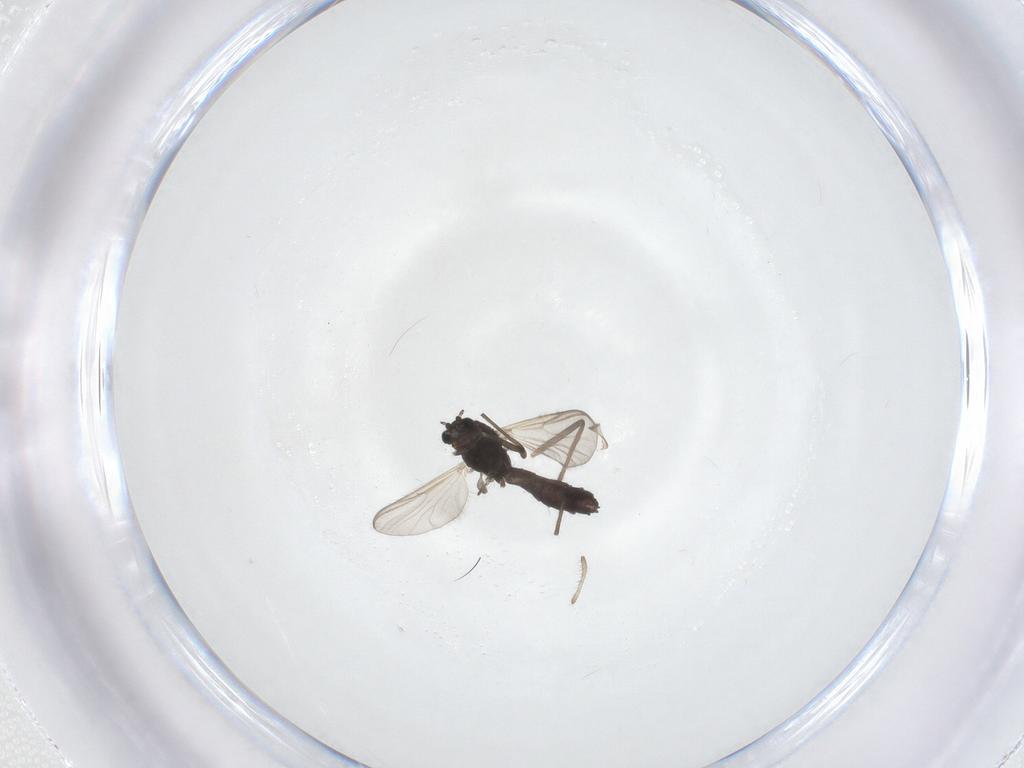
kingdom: Animalia
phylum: Arthropoda
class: Insecta
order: Diptera
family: Chironomidae
